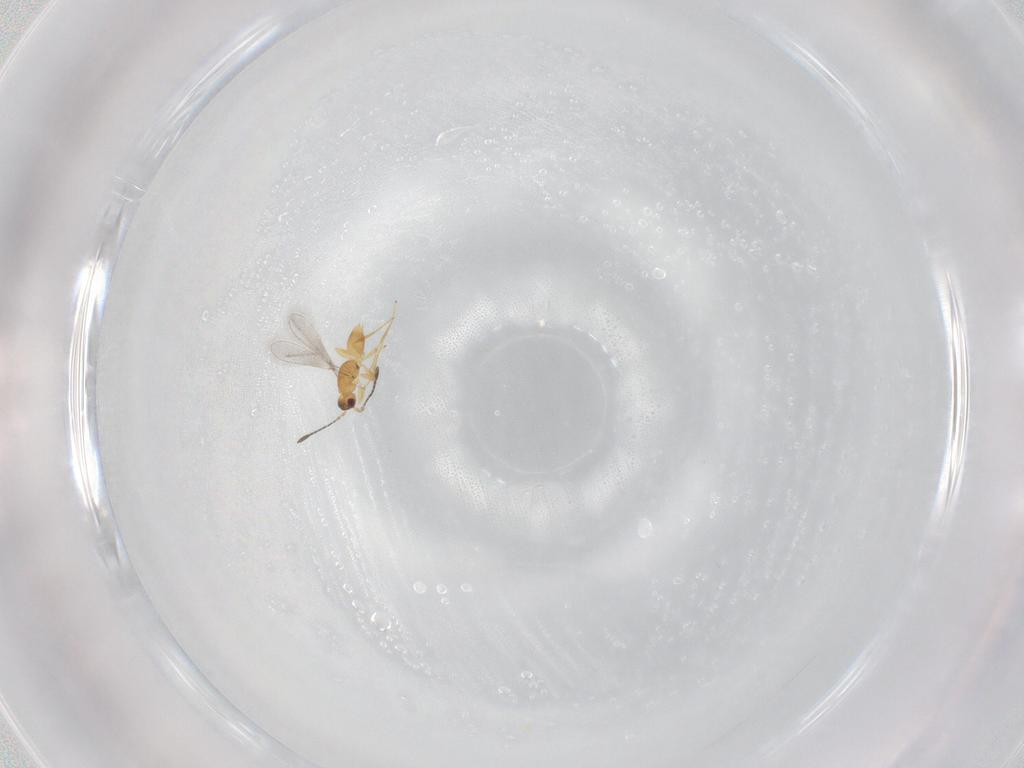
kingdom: Animalia
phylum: Arthropoda
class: Insecta
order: Hymenoptera
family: Mymaridae
